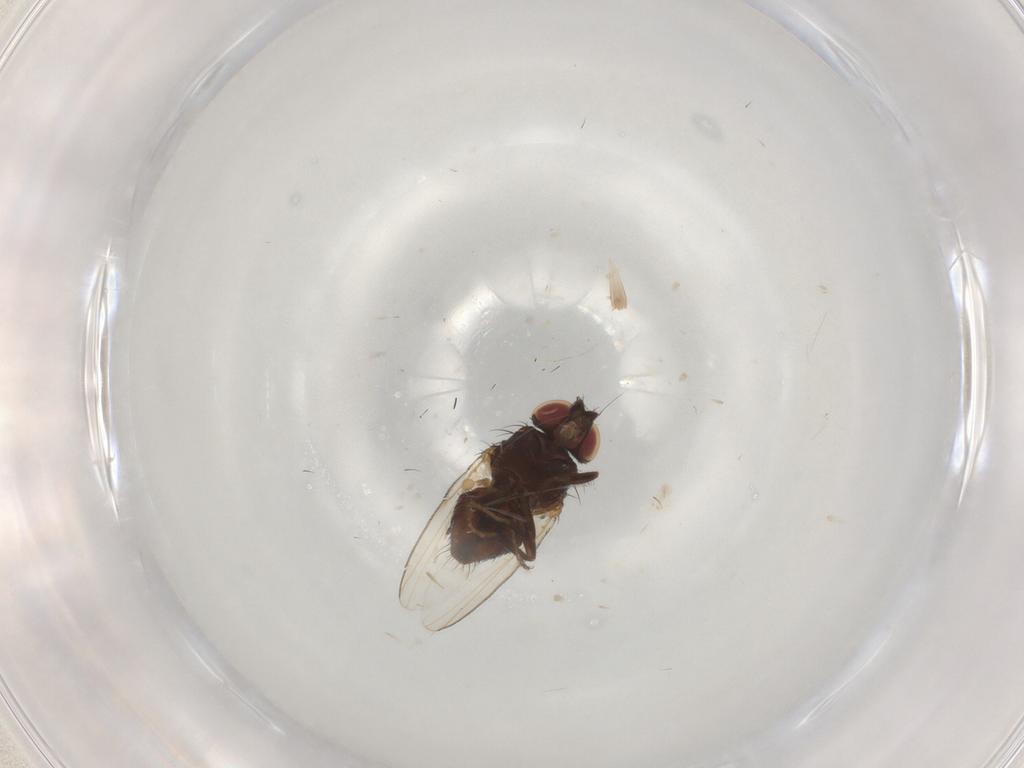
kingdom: Animalia
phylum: Arthropoda
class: Insecta
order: Diptera
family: Milichiidae
